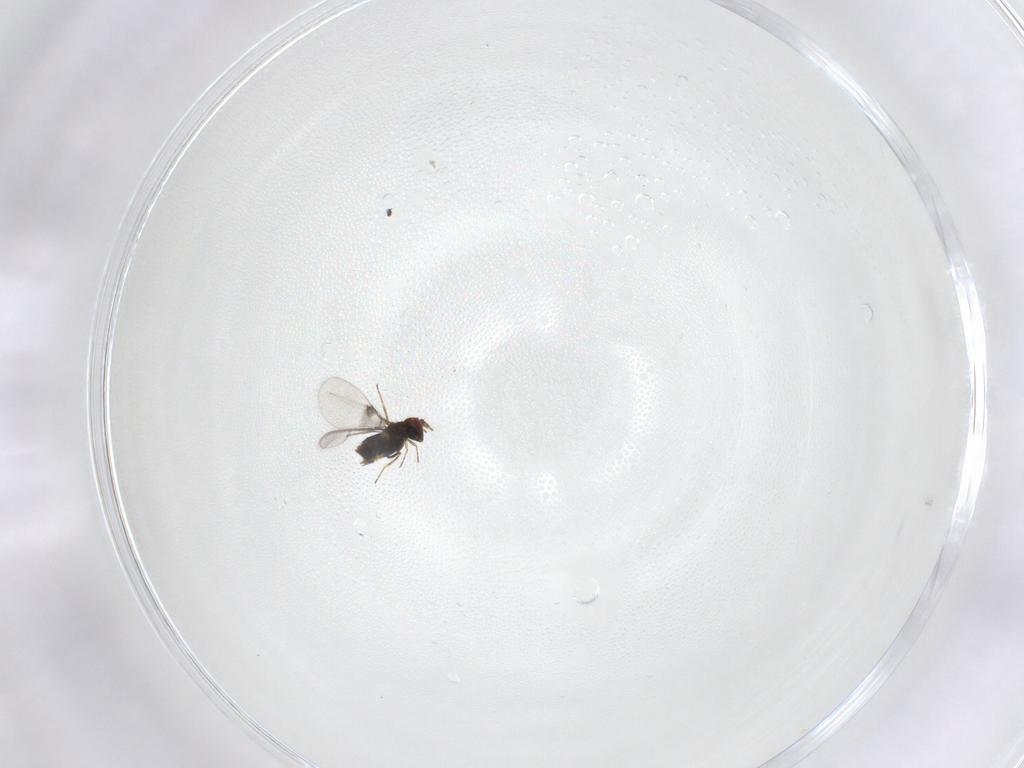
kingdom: Animalia
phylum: Arthropoda
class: Insecta
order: Hymenoptera
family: Trichogrammatidae
